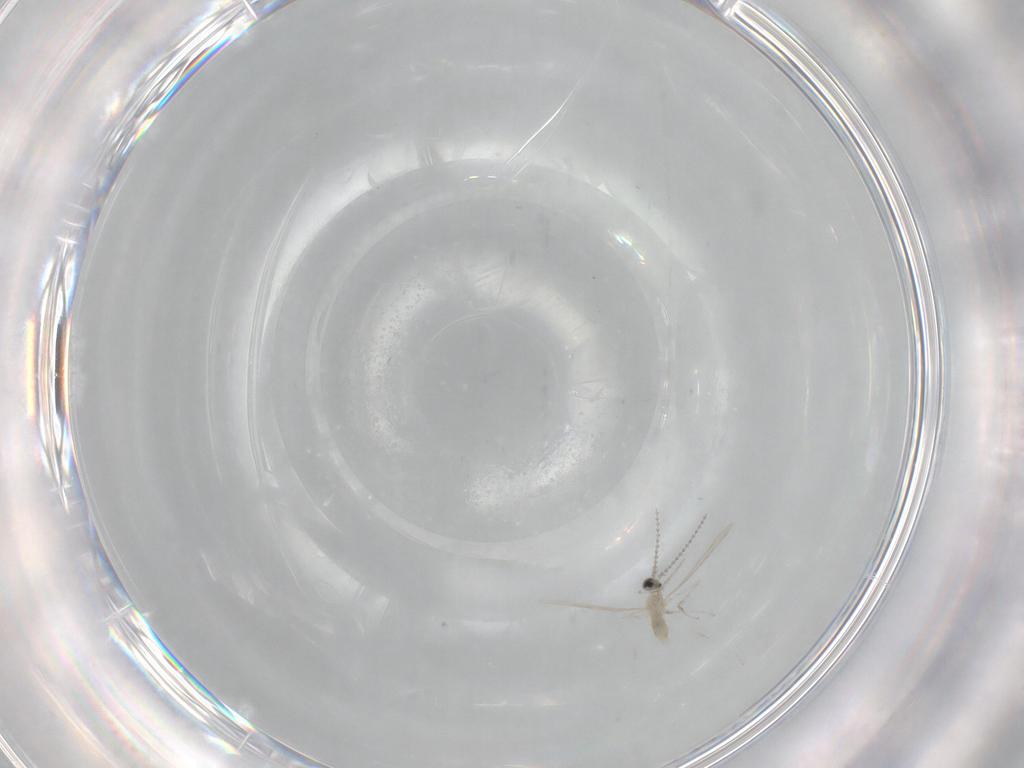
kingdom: Animalia
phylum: Arthropoda
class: Insecta
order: Diptera
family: Cecidomyiidae
